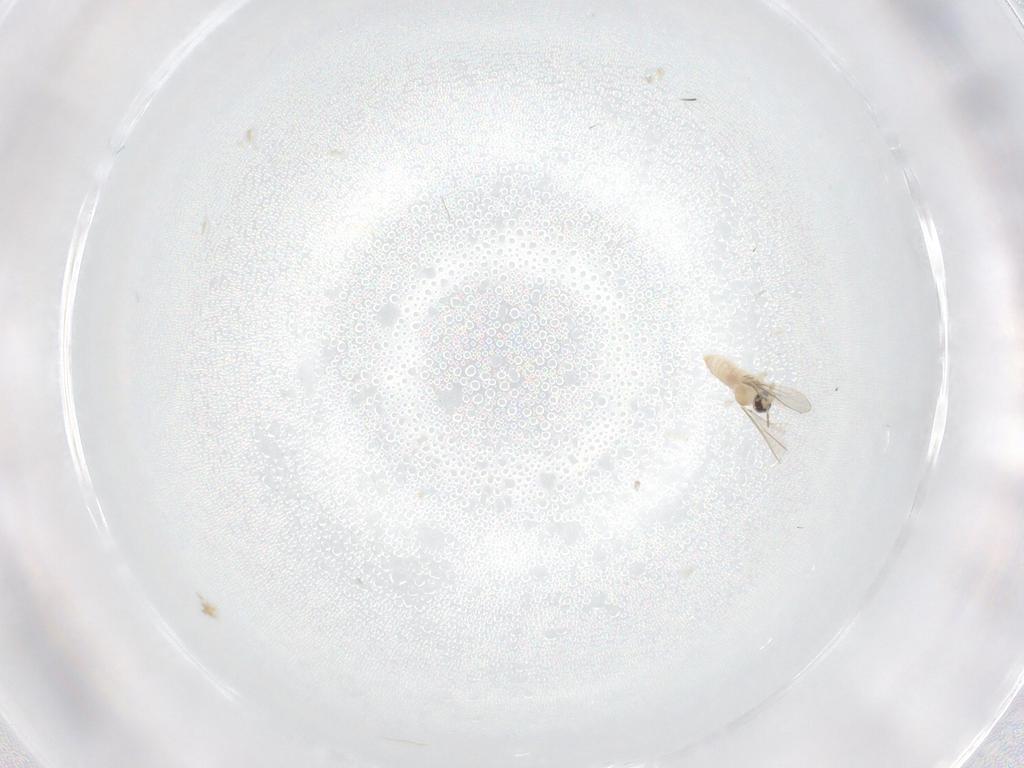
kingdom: Animalia
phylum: Arthropoda
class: Insecta
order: Diptera
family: Cecidomyiidae
